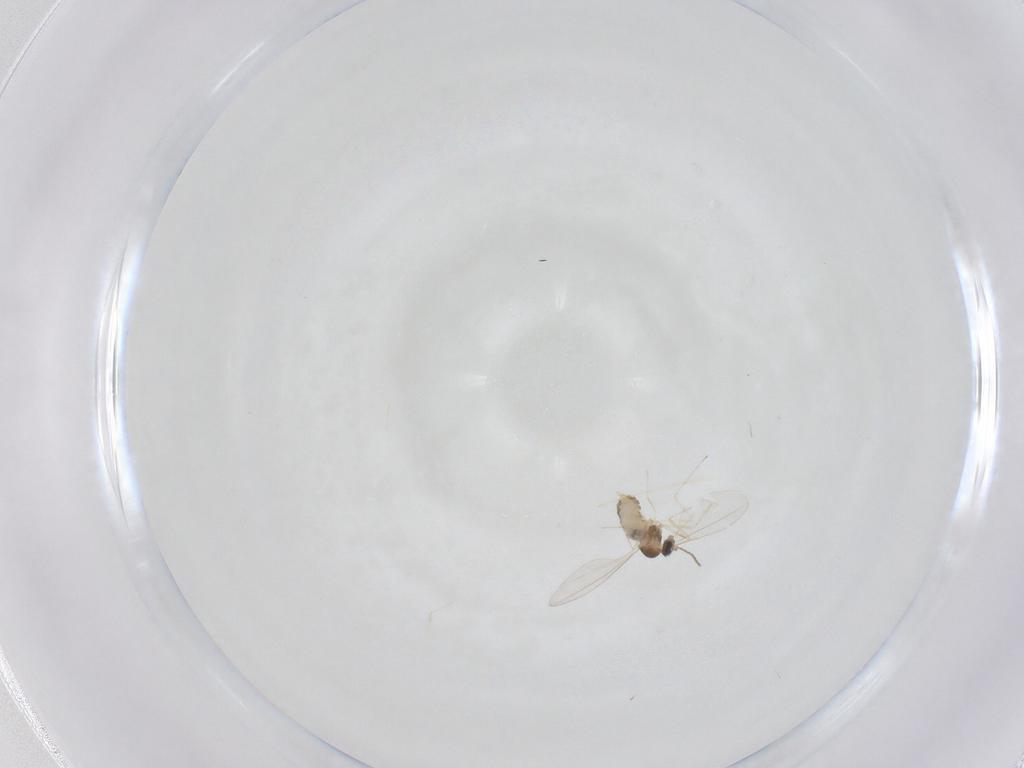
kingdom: Animalia
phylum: Arthropoda
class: Insecta
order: Diptera
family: Cecidomyiidae
